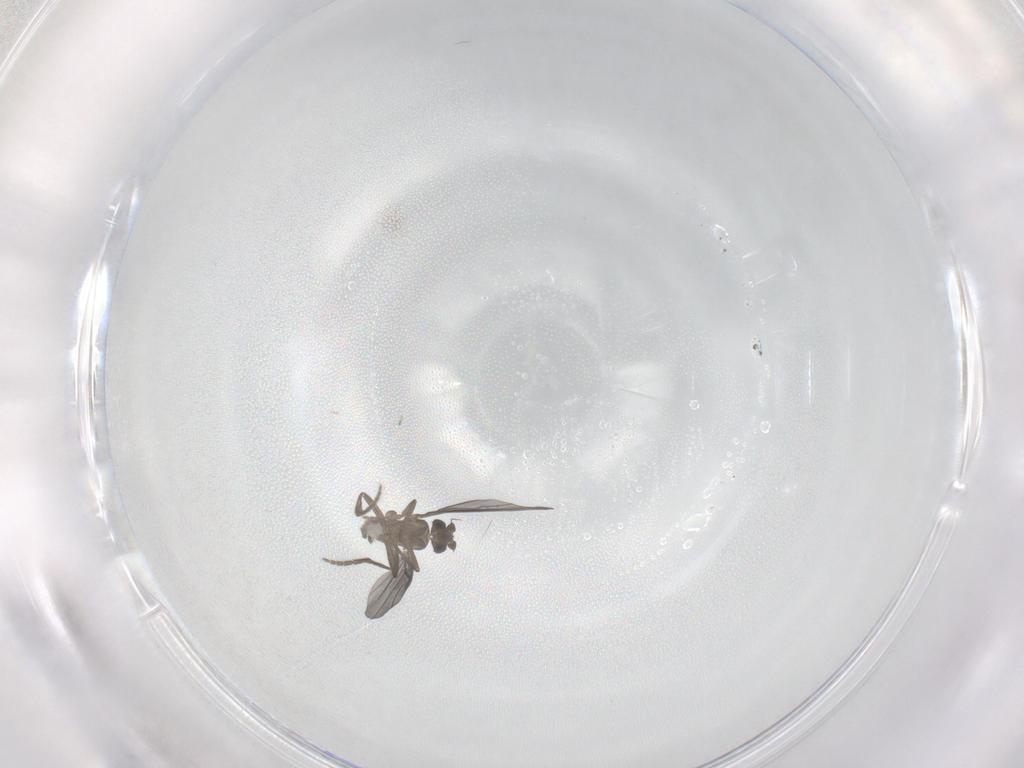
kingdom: Animalia
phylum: Arthropoda
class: Insecta
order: Diptera
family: Phoridae
